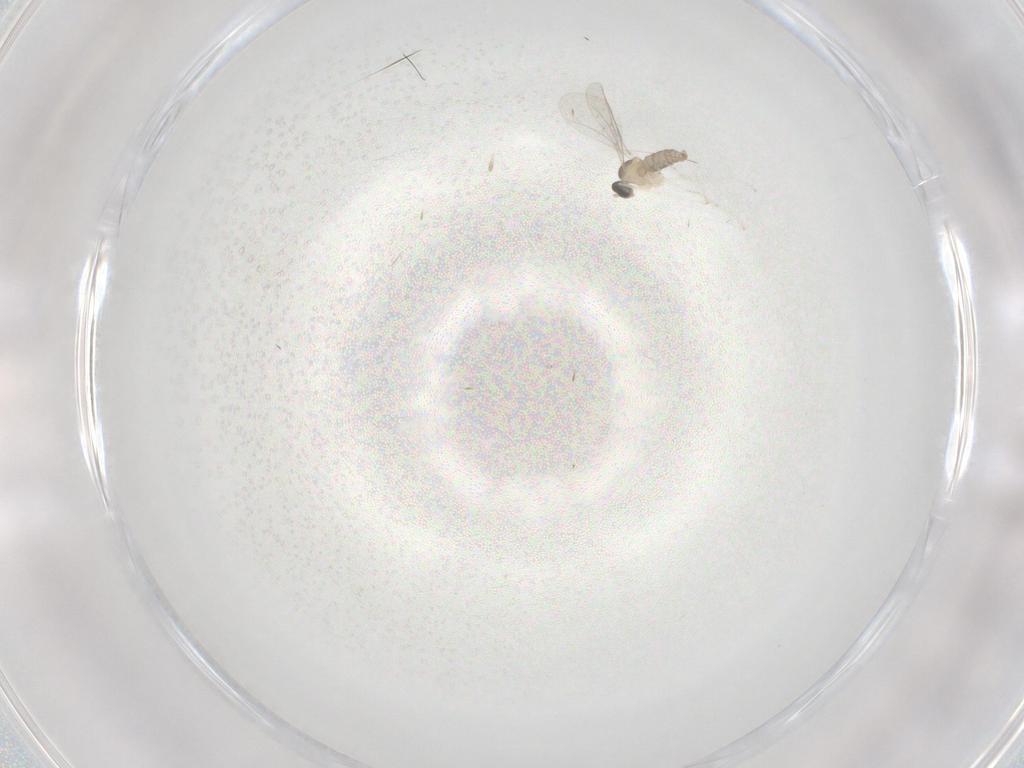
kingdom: Animalia
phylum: Arthropoda
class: Insecta
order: Diptera
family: Cecidomyiidae
